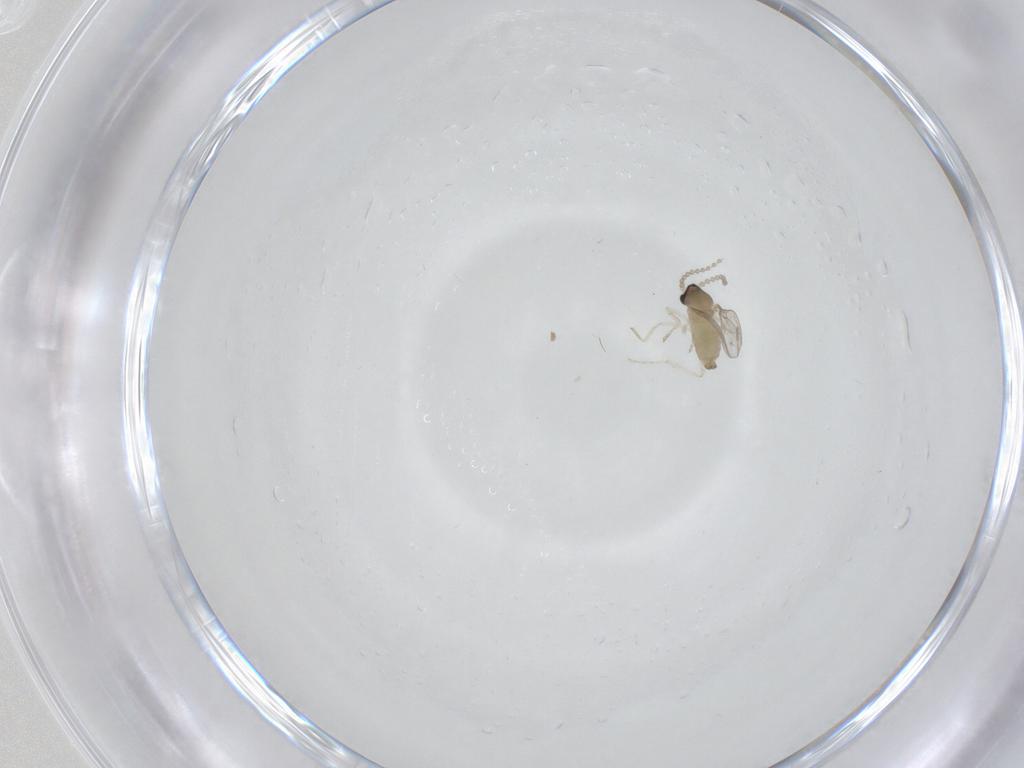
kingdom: Animalia
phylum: Arthropoda
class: Insecta
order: Diptera
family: Cecidomyiidae
